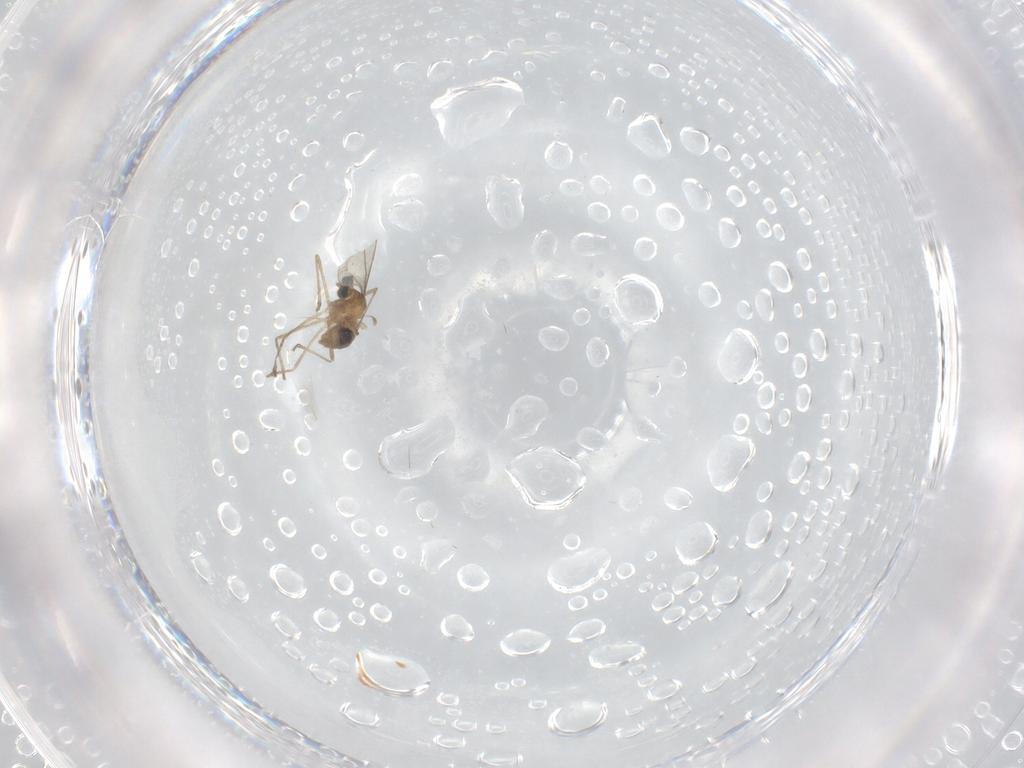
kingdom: Animalia
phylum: Arthropoda
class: Insecta
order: Diptera
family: Cecidomyiidae
